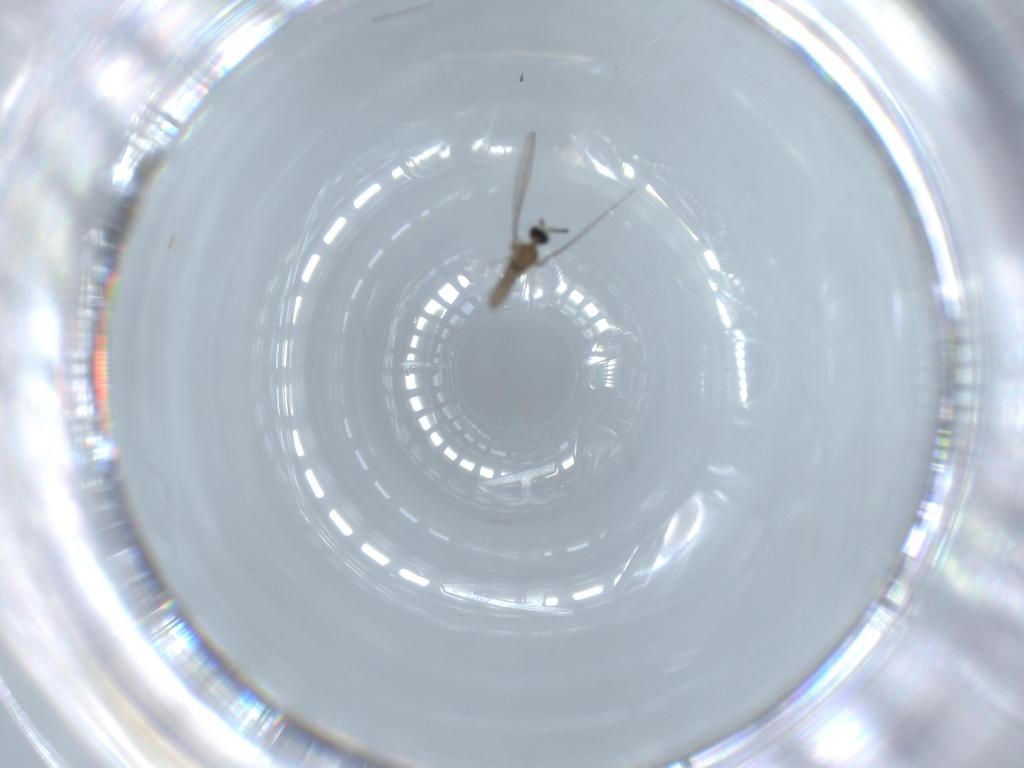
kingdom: Animalia
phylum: Arthropoda
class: Insecta
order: Diptera
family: Cecidomyiidae
